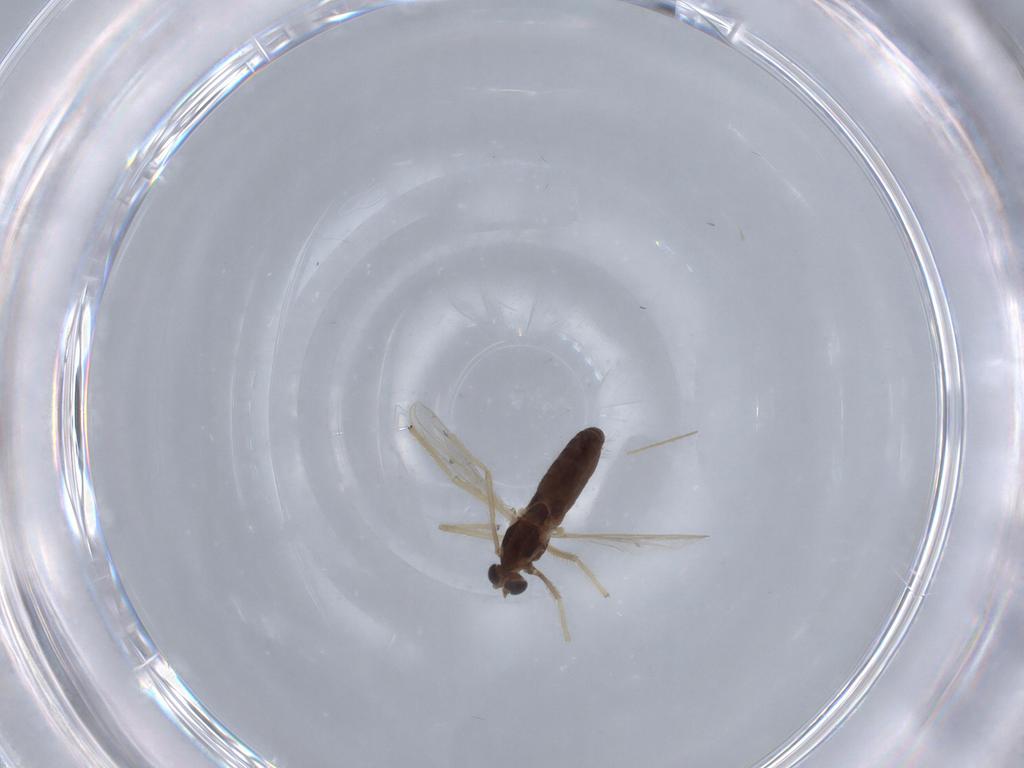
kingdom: Animalia
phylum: Arthropoda
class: Insecta
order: Diptera
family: Chironomidae
